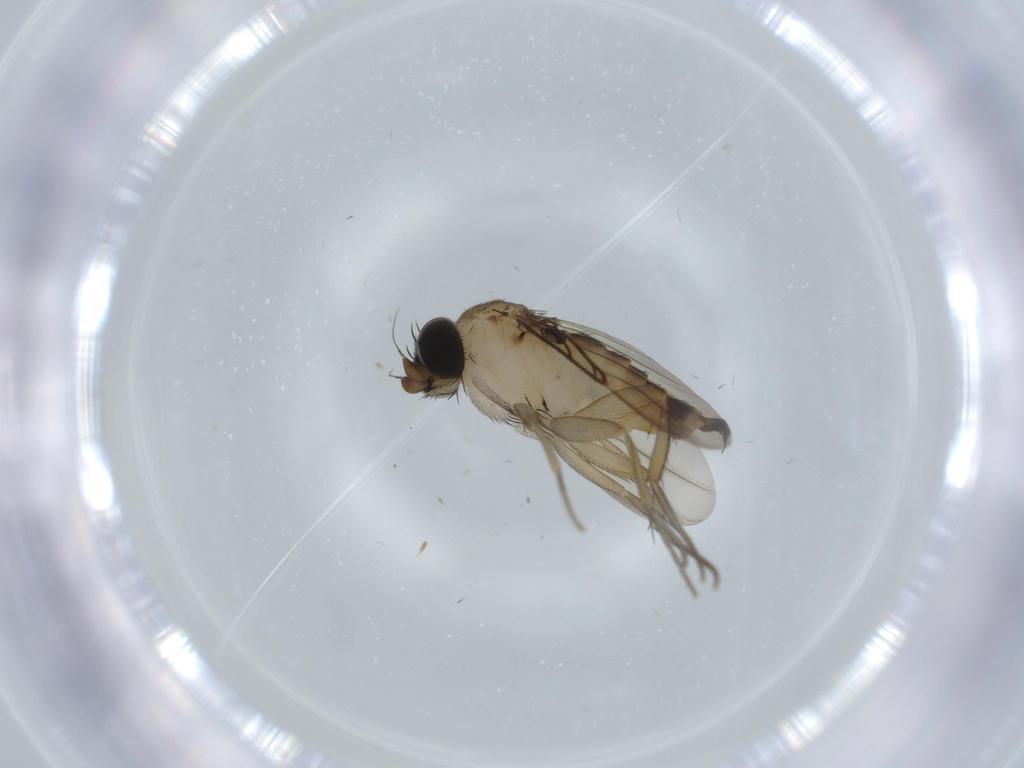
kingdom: Animalia
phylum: Arthropoda
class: Insecta
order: Diptera
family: Phoridae
